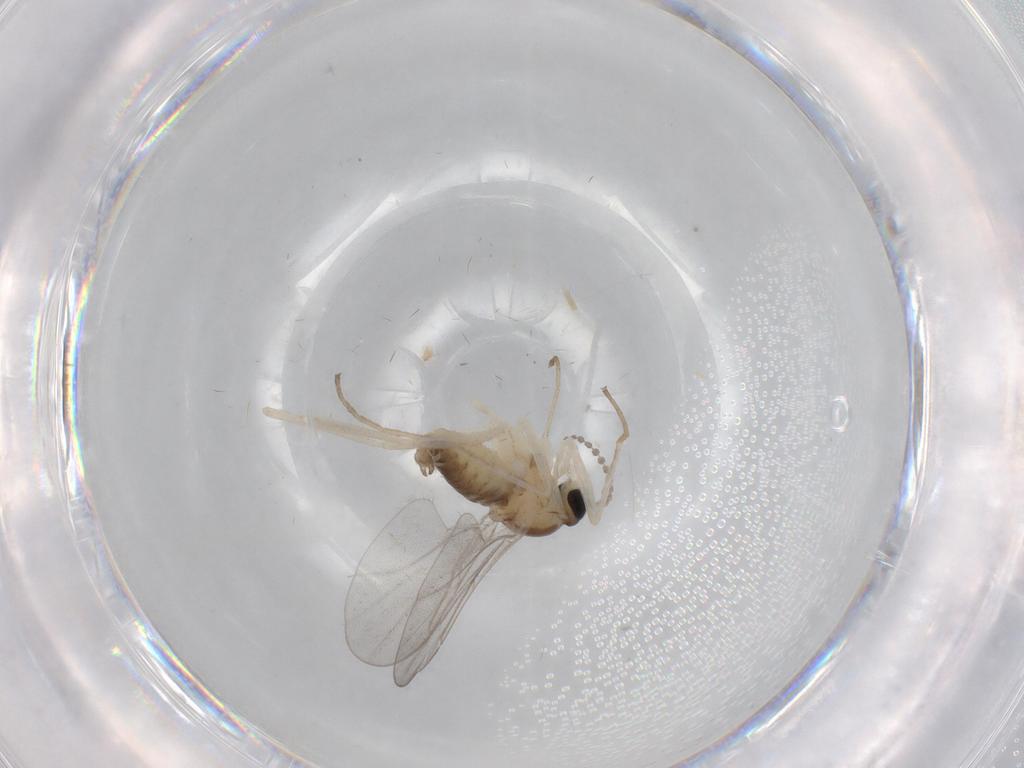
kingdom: Animalia
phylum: Arthropoda
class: Insecta
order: Diptera
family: Cecidomyiidae
